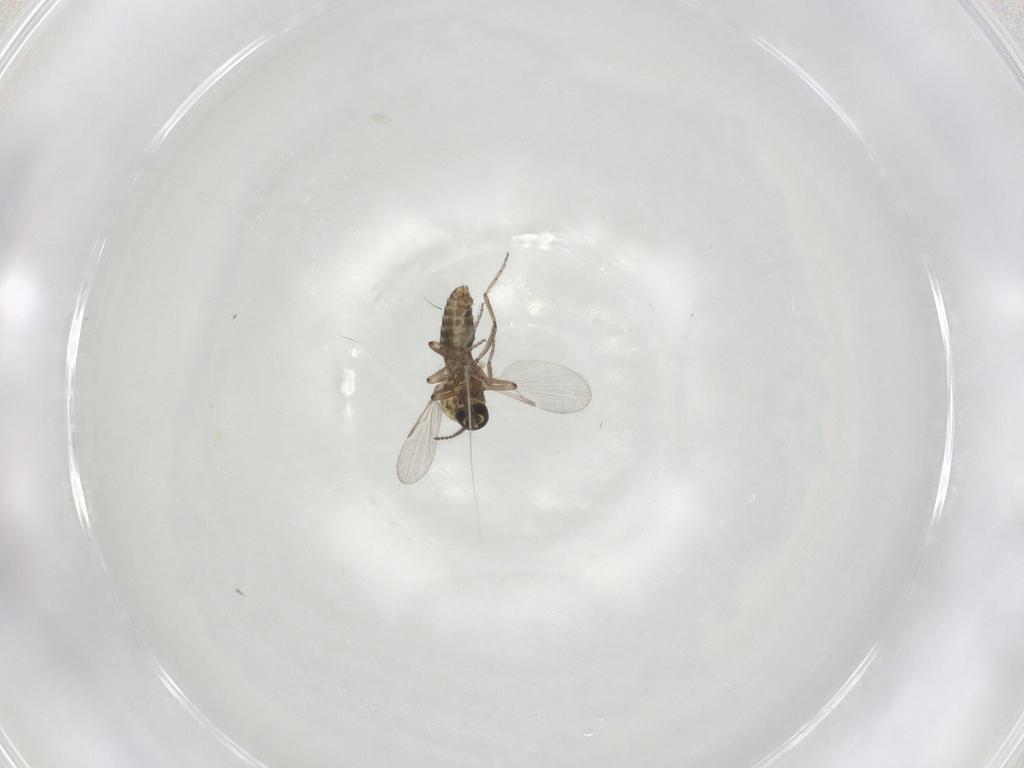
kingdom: Animalia
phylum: Arthropoda
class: Insecta
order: Diptera
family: Ceratopogonidae
